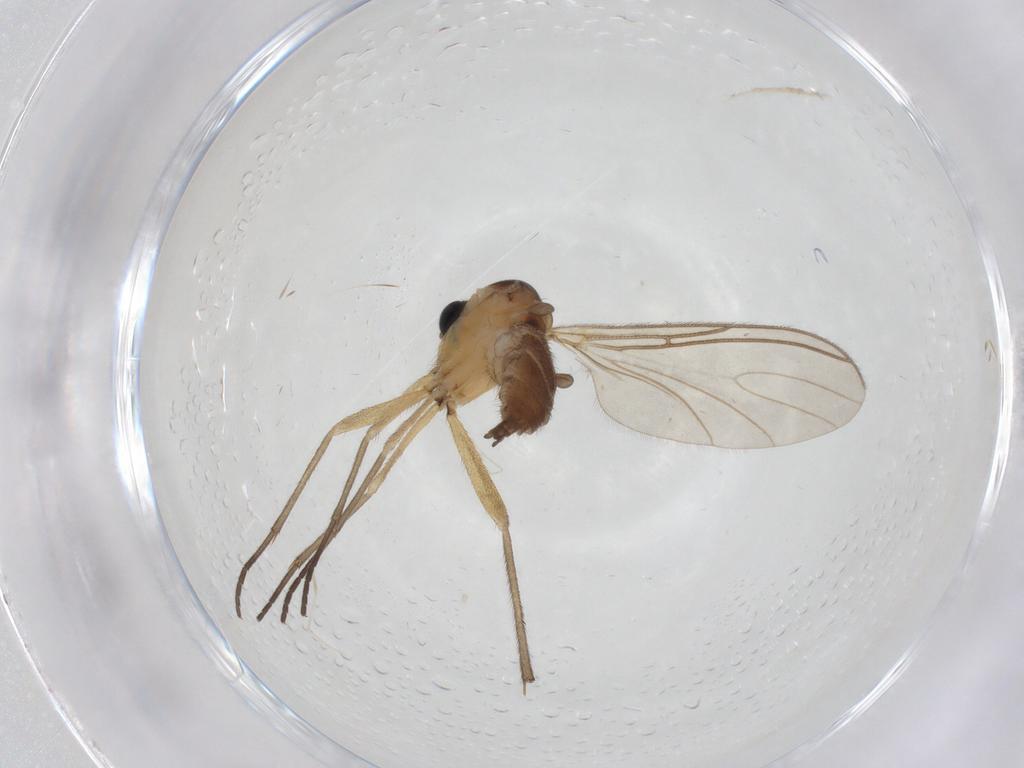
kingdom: Animalia
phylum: Arthropoda
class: Insecta
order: Diptera
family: Sciaridae
